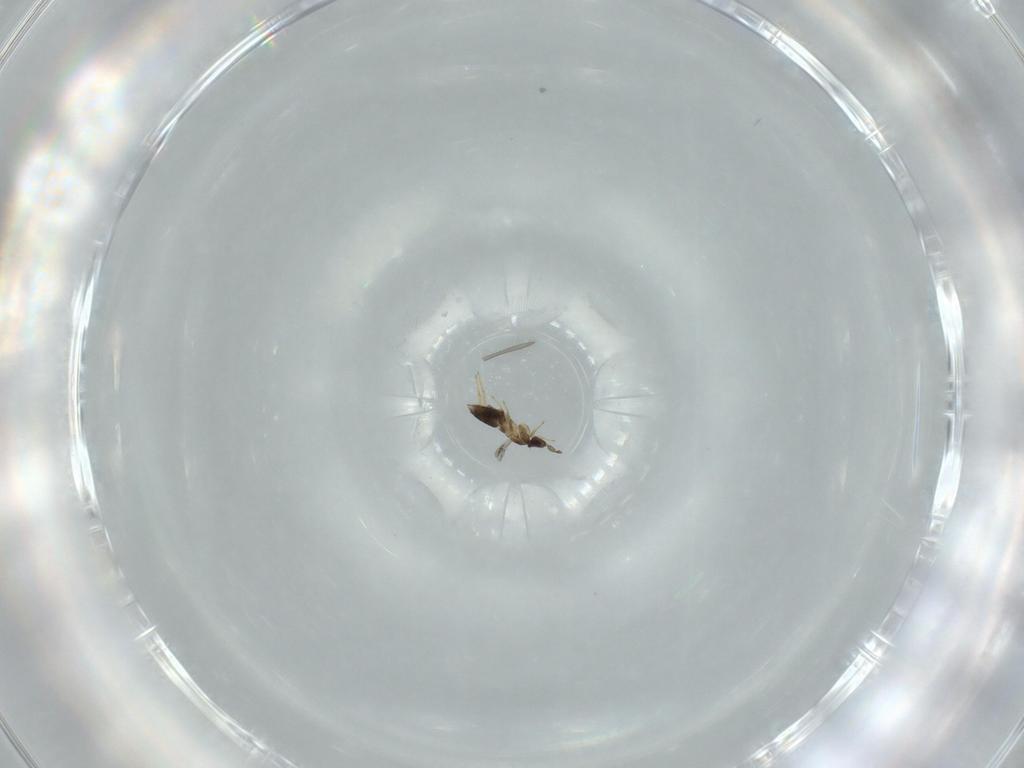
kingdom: Animalia
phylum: Arthropoda
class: Insecta
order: Hymenoptera
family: Mymaridae
